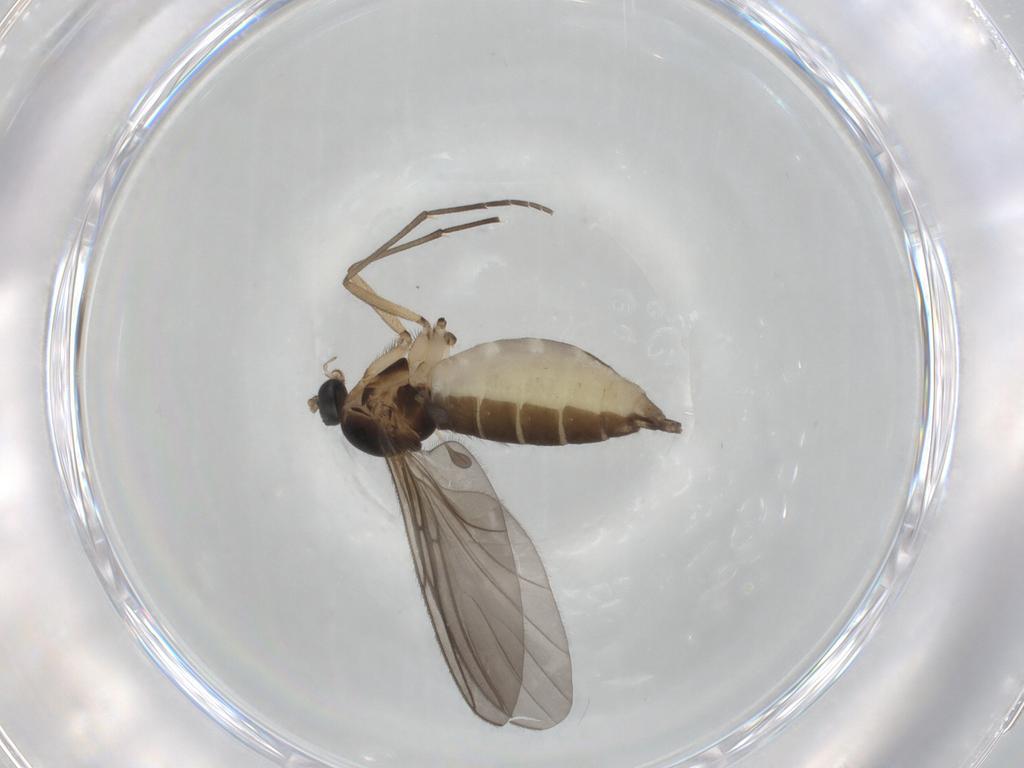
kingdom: Animalia
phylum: Arthropoda
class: Insecta
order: Diptera
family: Sciaridae
